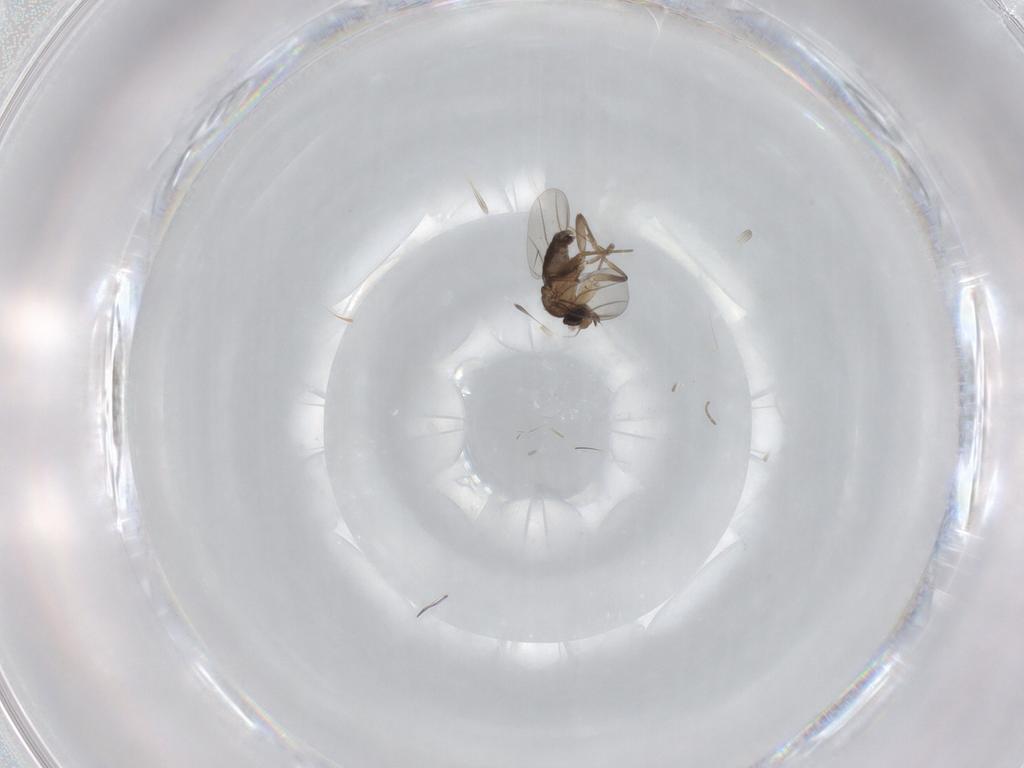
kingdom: Animalia
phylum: Arthropoda
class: Insecta
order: Diptera
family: Phoridae
